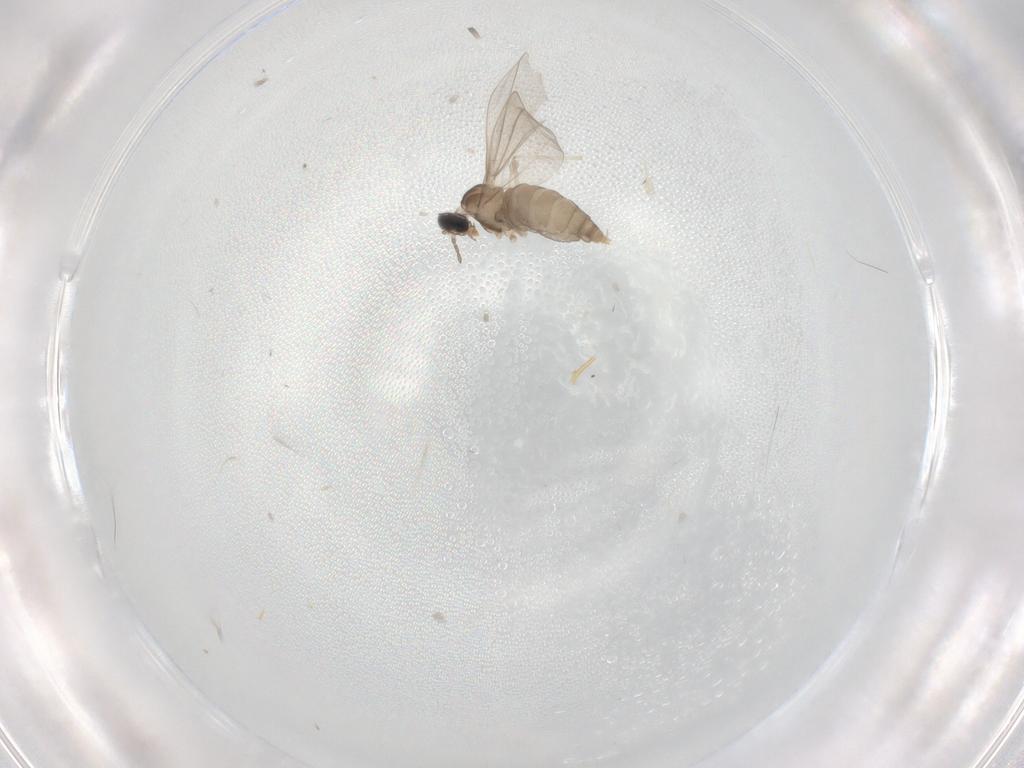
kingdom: Animalia
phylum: Arthropoda
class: Insecta
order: Diptera
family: Cecidomyiidae
